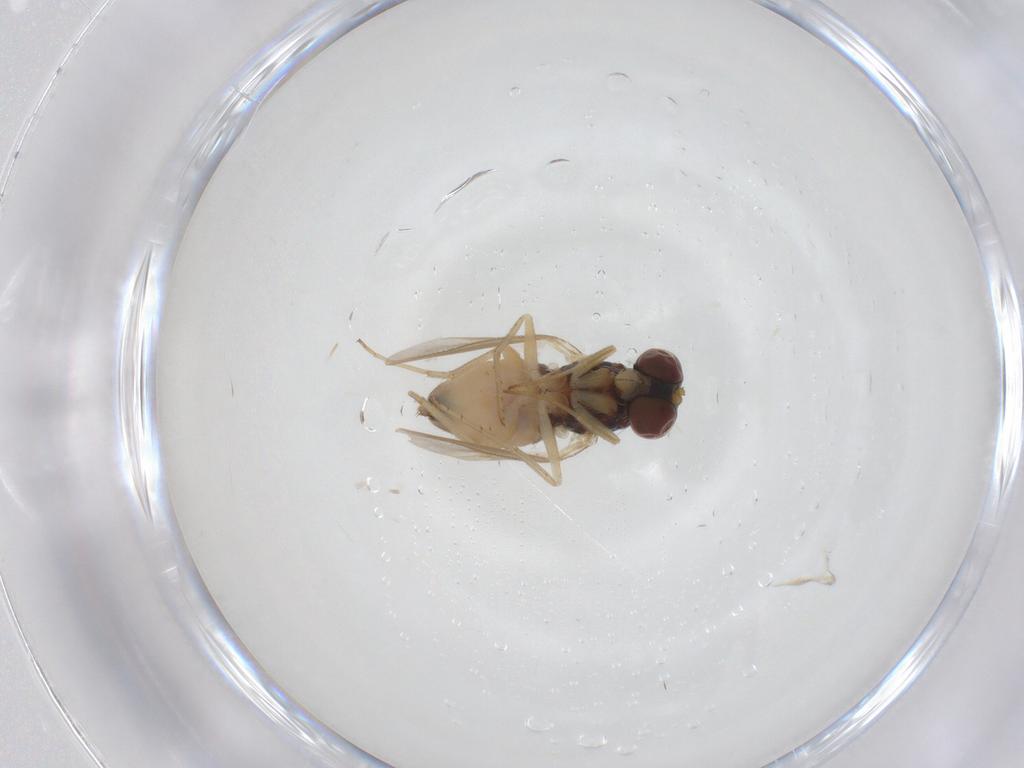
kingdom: Animalia
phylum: Arthropoda
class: Insecta
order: Diptera
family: Dolichopodidae
